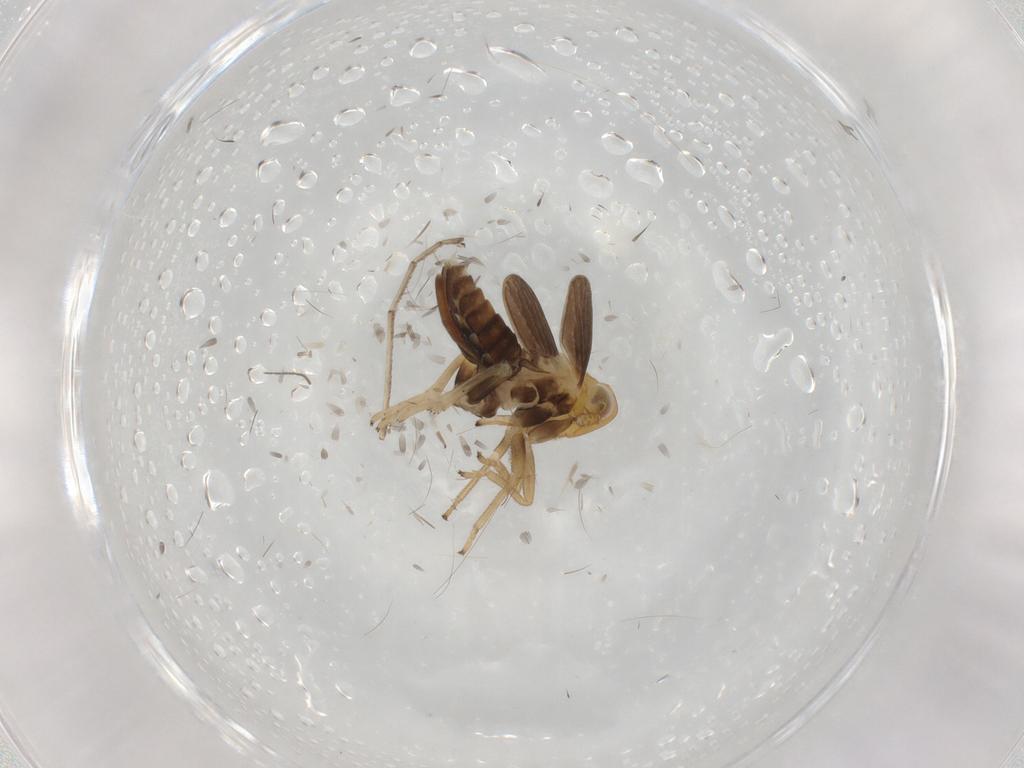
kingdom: Animalia
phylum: Arthropoda
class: Insecta
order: Hemiptera
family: Delphacidae
